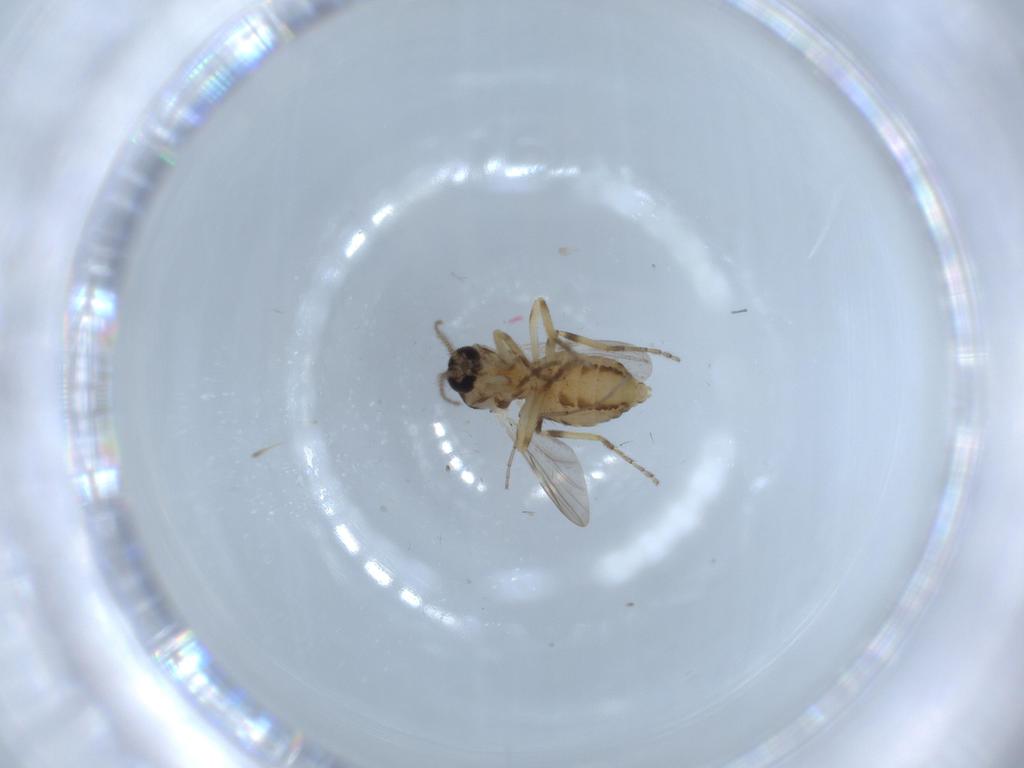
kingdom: Animalia
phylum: Arthropoda
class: Insecta
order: Diptera
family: Ceratopogonidae
